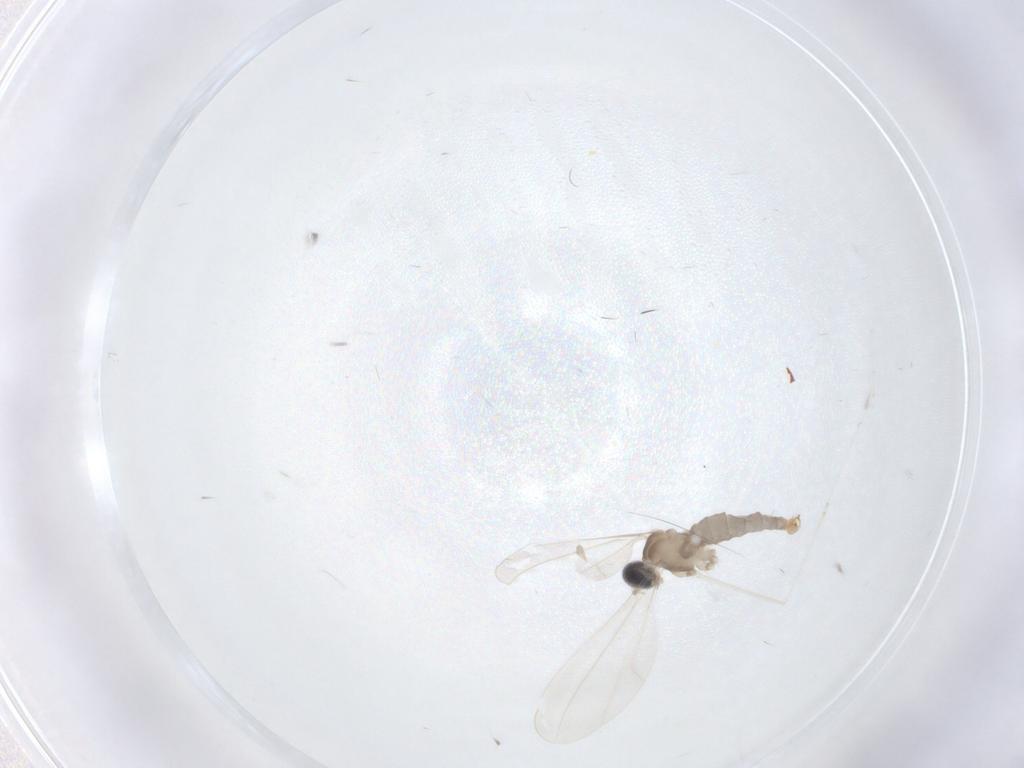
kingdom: Animalia
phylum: Arthropoda
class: Insecta
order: Diptera
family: Cecidomyiidae
